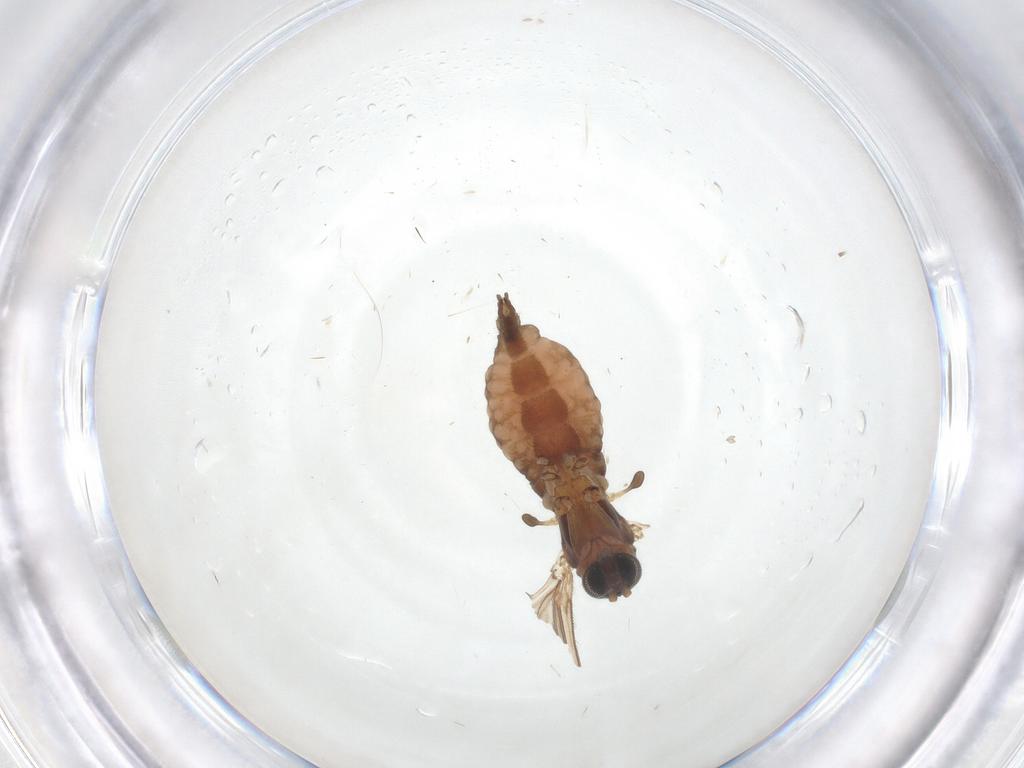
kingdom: Animalia
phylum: Arthropoda
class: Insecta
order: Diptera
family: Sciaridae
